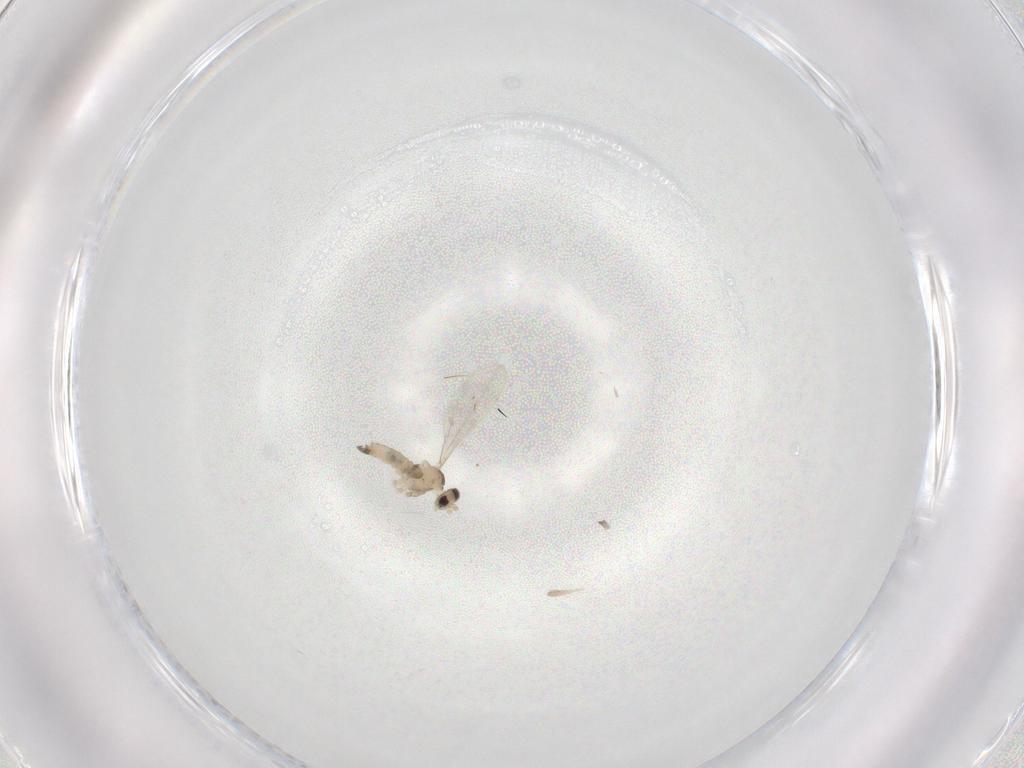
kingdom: Animalia
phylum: Arthropoda
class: Insecta
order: Diptera
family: Cecidomyiidae
